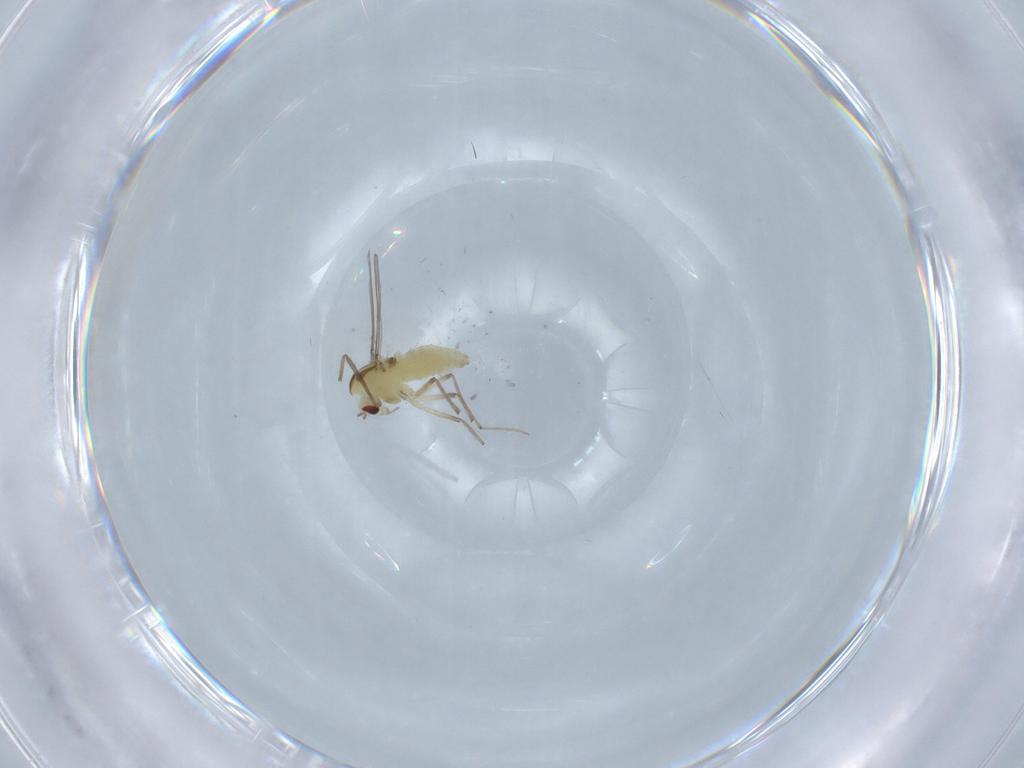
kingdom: Animalia
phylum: Arthropoda
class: Insecta
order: Diptera
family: Chironomidae
